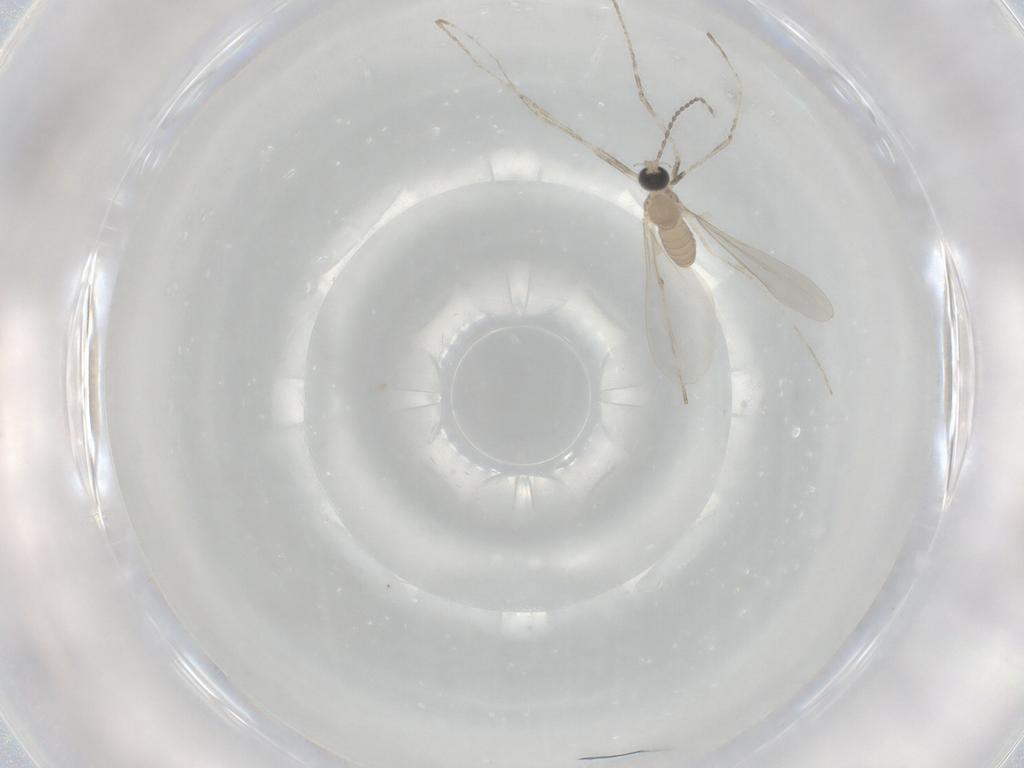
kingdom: Animalia
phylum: Arthropoda
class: Insecta
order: Diptera
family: Cecidomyiidae
